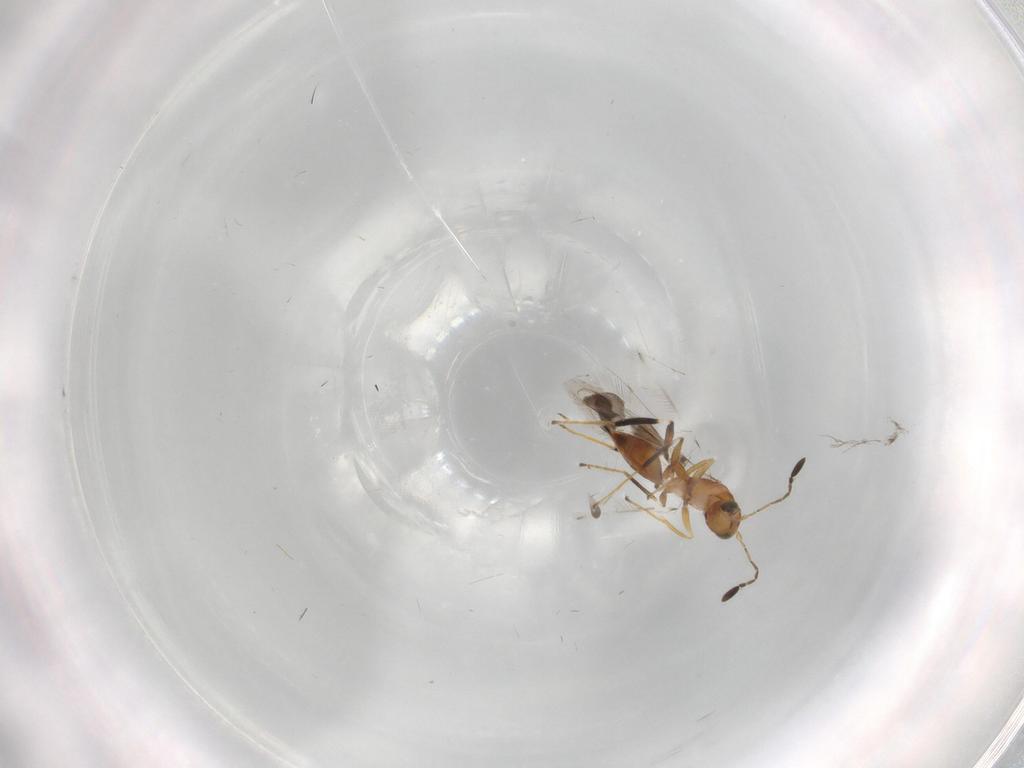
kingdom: Animalia
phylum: Arthropoda
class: Insecta
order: Hymenoptera
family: Mymaridae
